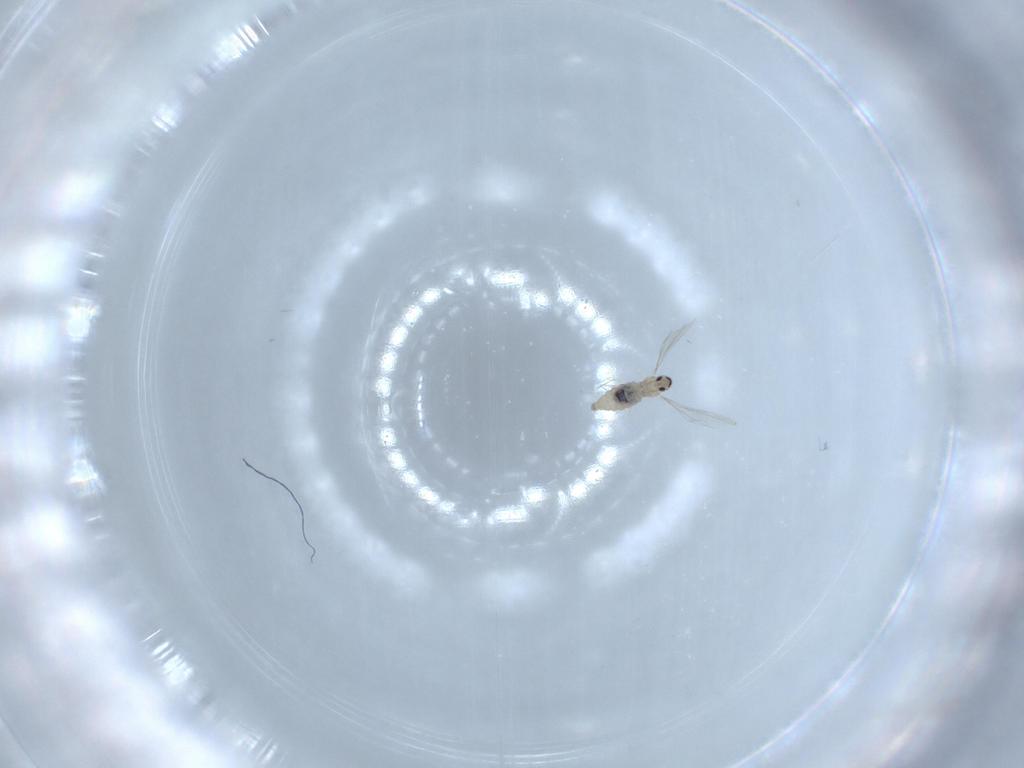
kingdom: Animalia
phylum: Arthropoda
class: Insecta
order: Diptera
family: Cecidomyiidae
